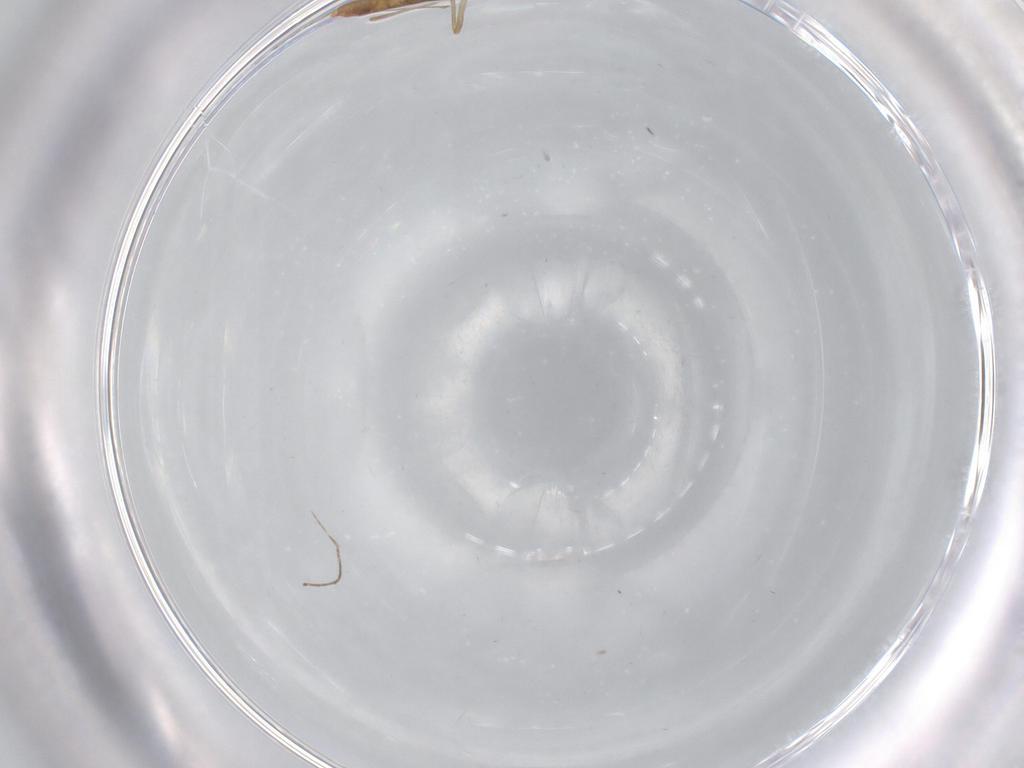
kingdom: Animalia
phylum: Arthropoda
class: Insecta
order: Diptera
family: Chironomidae
